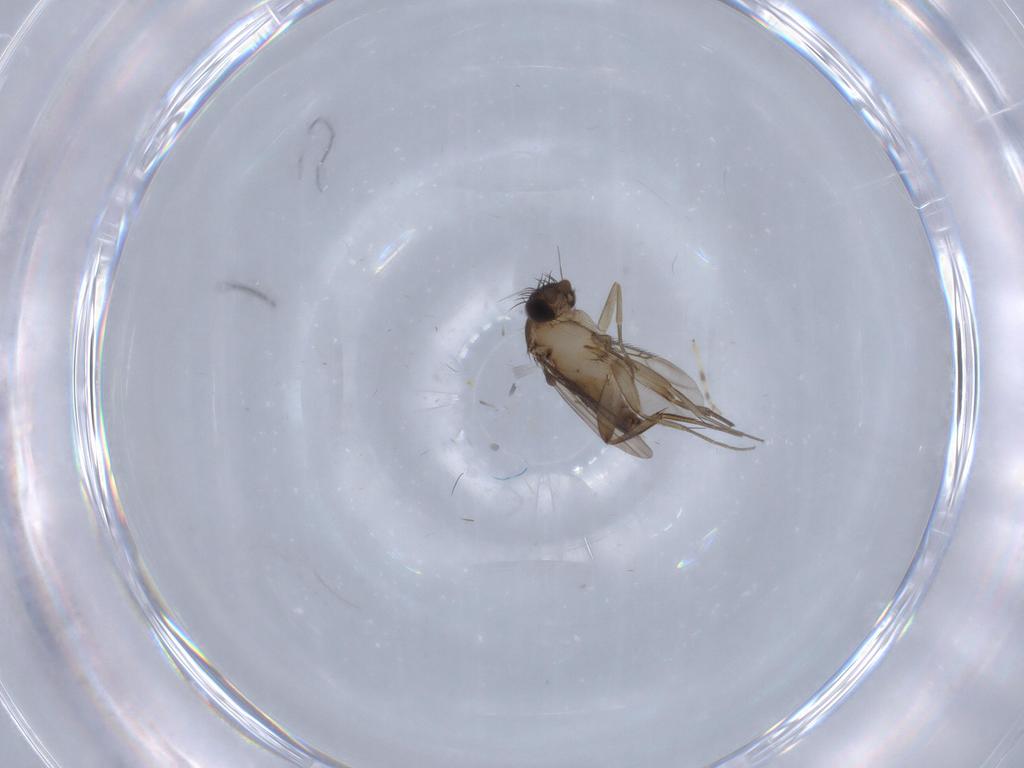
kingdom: Animalia
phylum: Arthropoda
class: Insecta
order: Diptera
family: Phoridae
